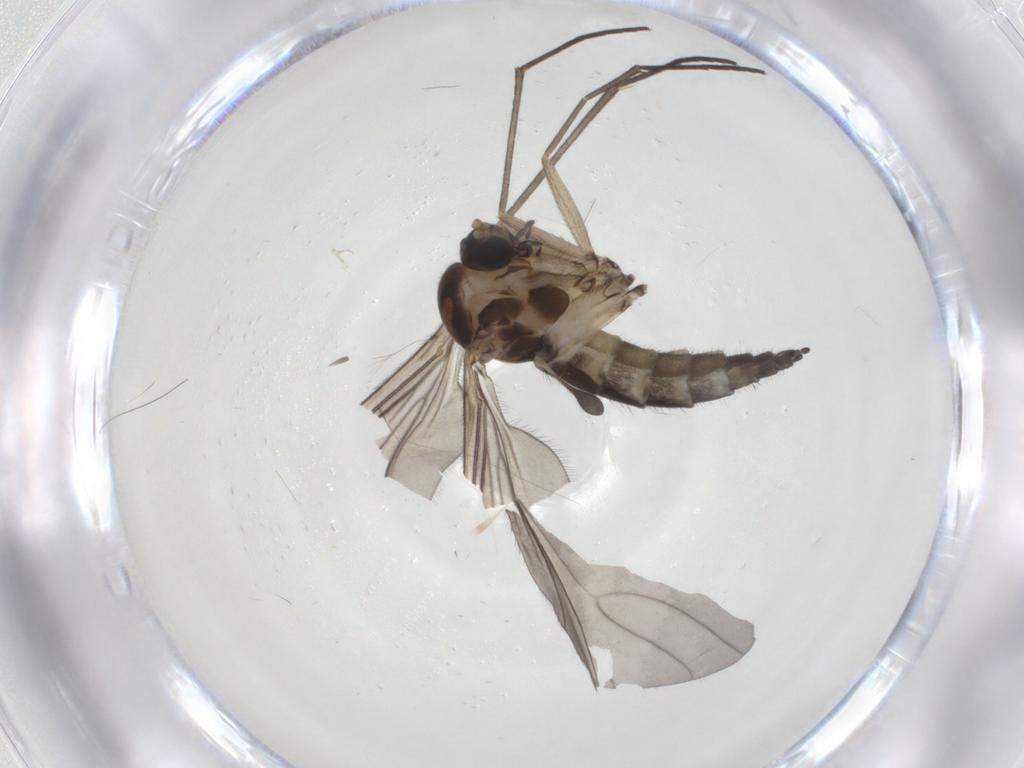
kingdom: Animalia
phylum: Arthropoda
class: Insecta
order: Diptera
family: Sciaridae
